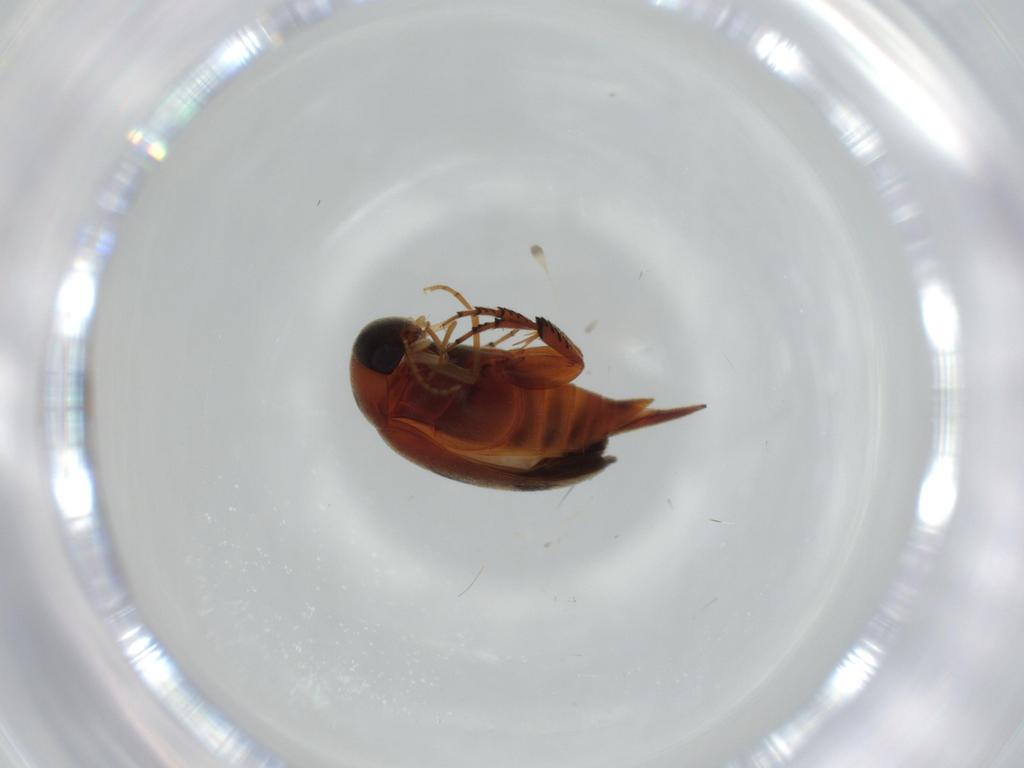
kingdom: Animalia
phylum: Arthropoda
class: Insecta
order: Coleoptera
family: Mordellidae
